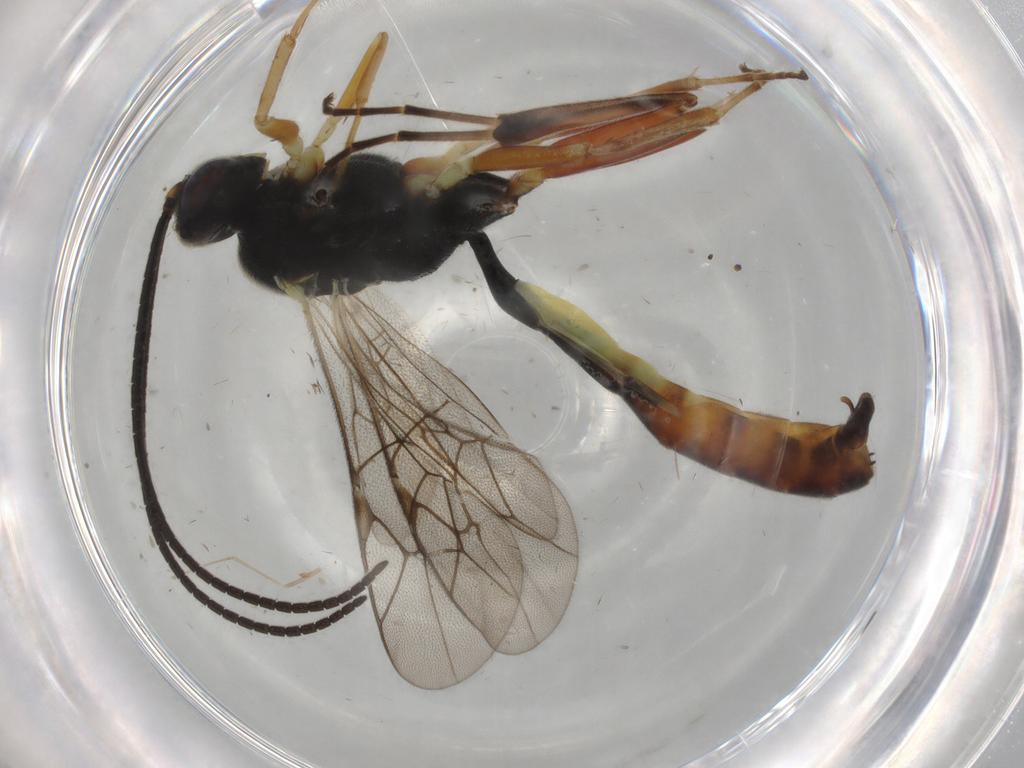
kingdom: Animalia
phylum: Arthropoda
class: Insecta
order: Hymenoptera
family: Ichneumonidae
